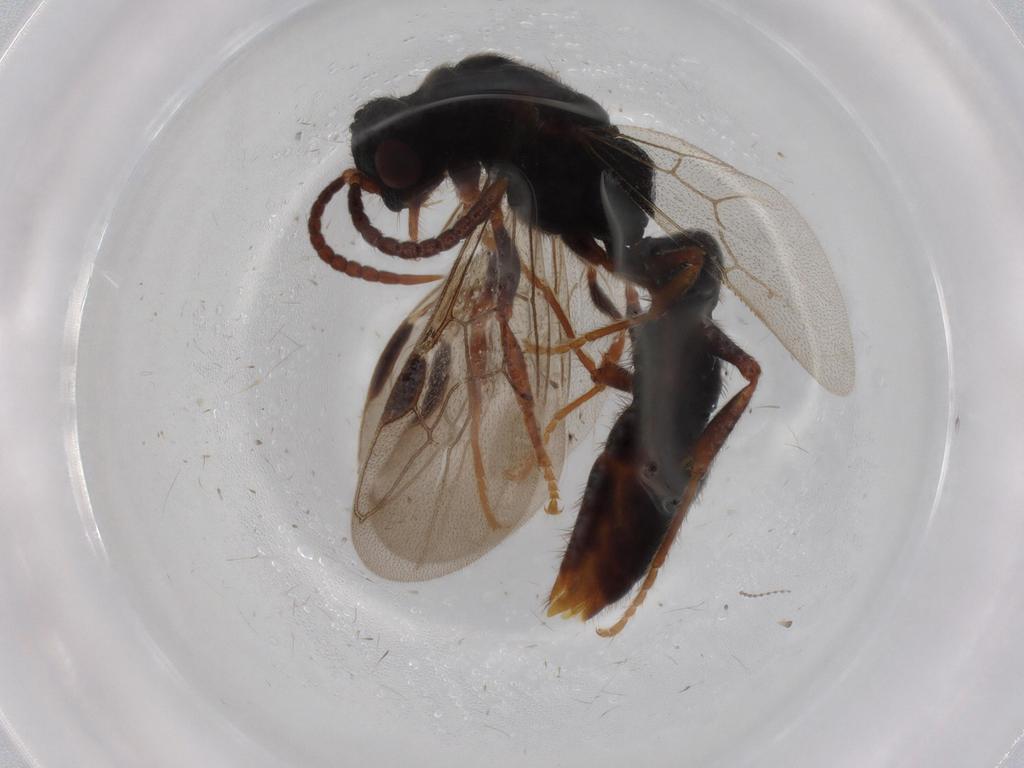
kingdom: Animalia
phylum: Arthropoda
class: Insecta
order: Hymenoptera
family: Formicidae
